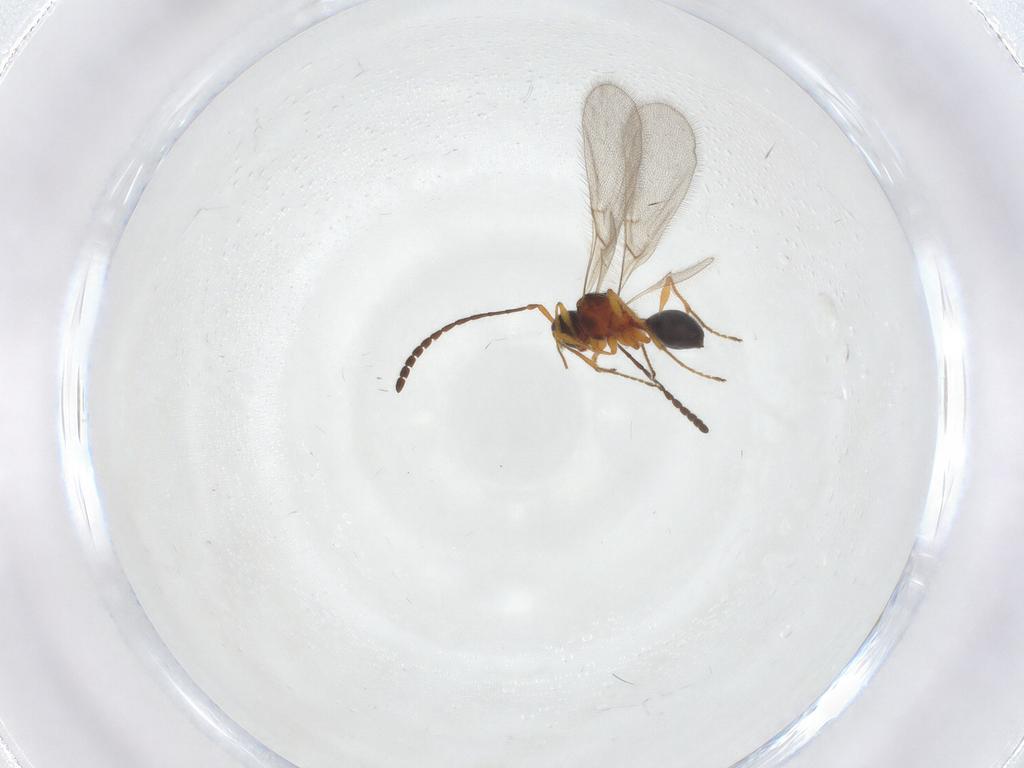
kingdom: Animalia
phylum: Arthropoda
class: Insecta
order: Hymenoptera
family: Diapriidae
